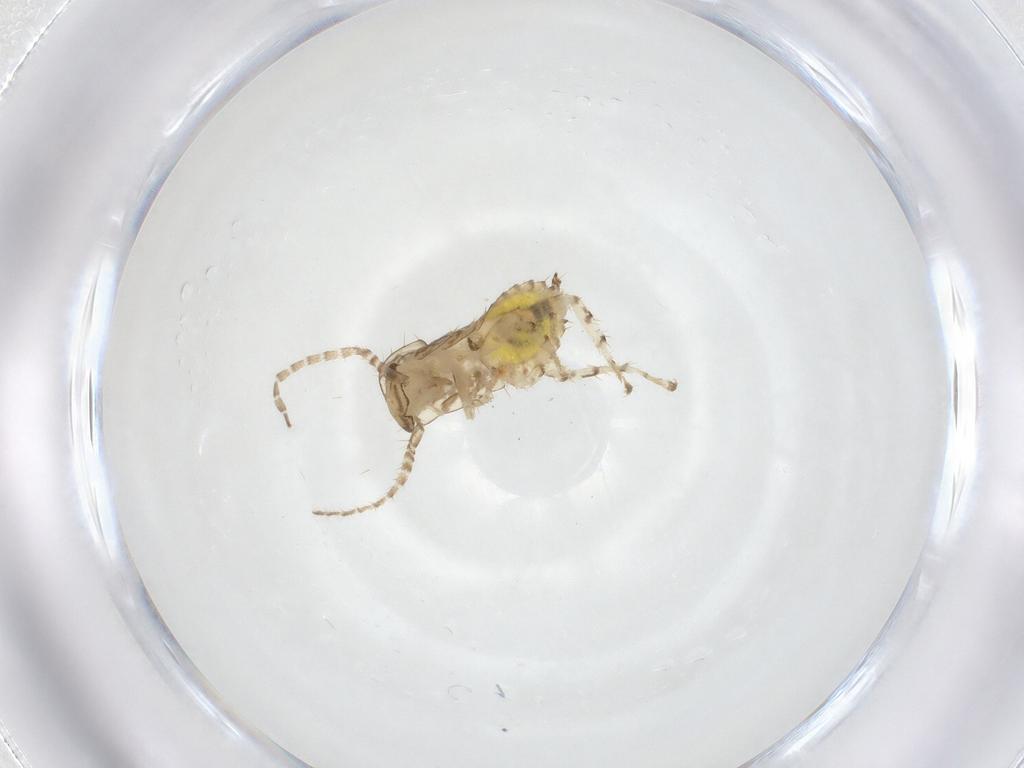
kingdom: Animalia
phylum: Arthropoda
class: Insecta
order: Blattodea
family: Ectobiidae
